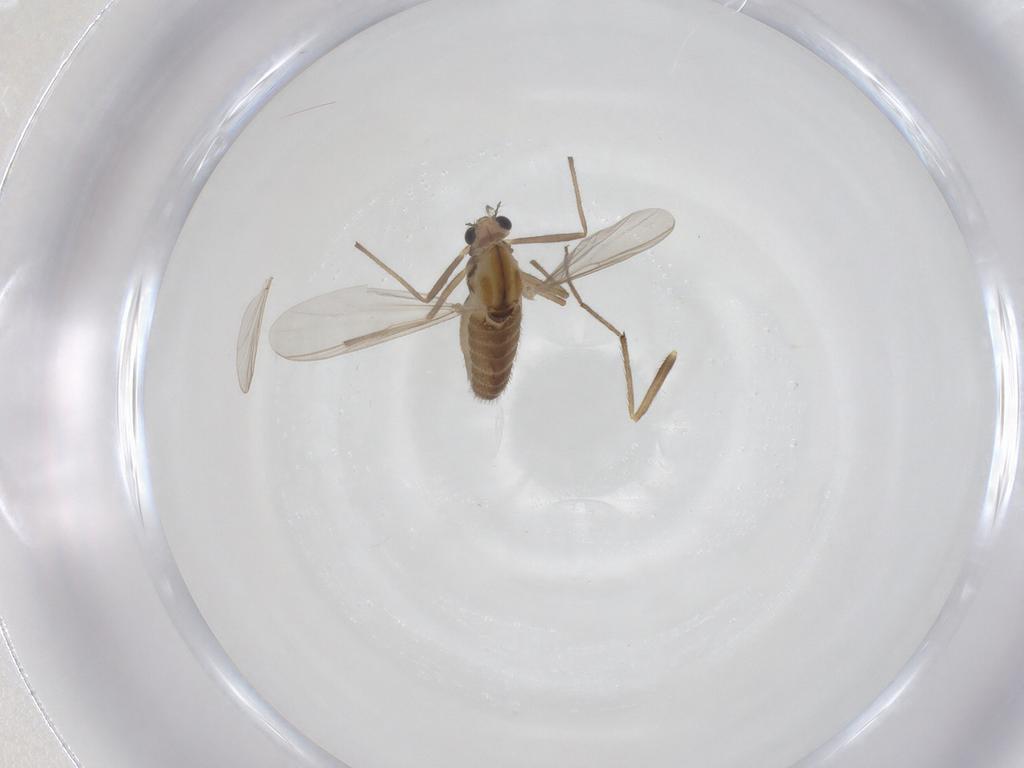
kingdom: Animalia
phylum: Arthropoda
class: Insecta
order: Diptera
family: Chironomidae
